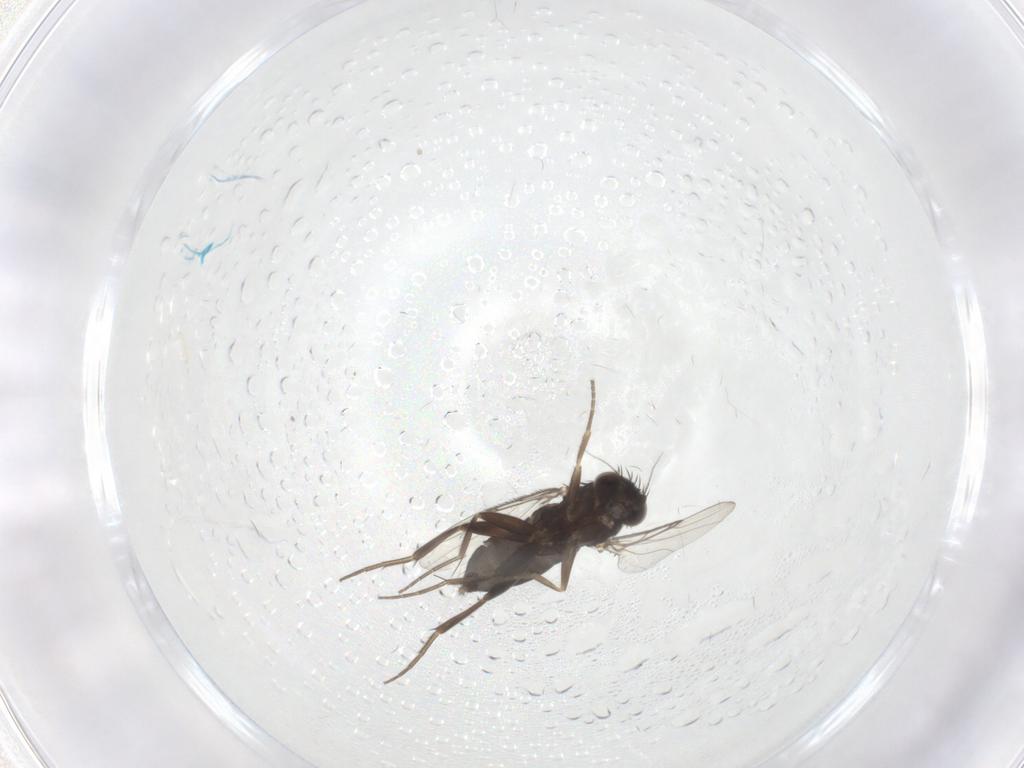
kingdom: Animalia
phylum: Arthropoda
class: Insecta
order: Diptera
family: Phoridae
